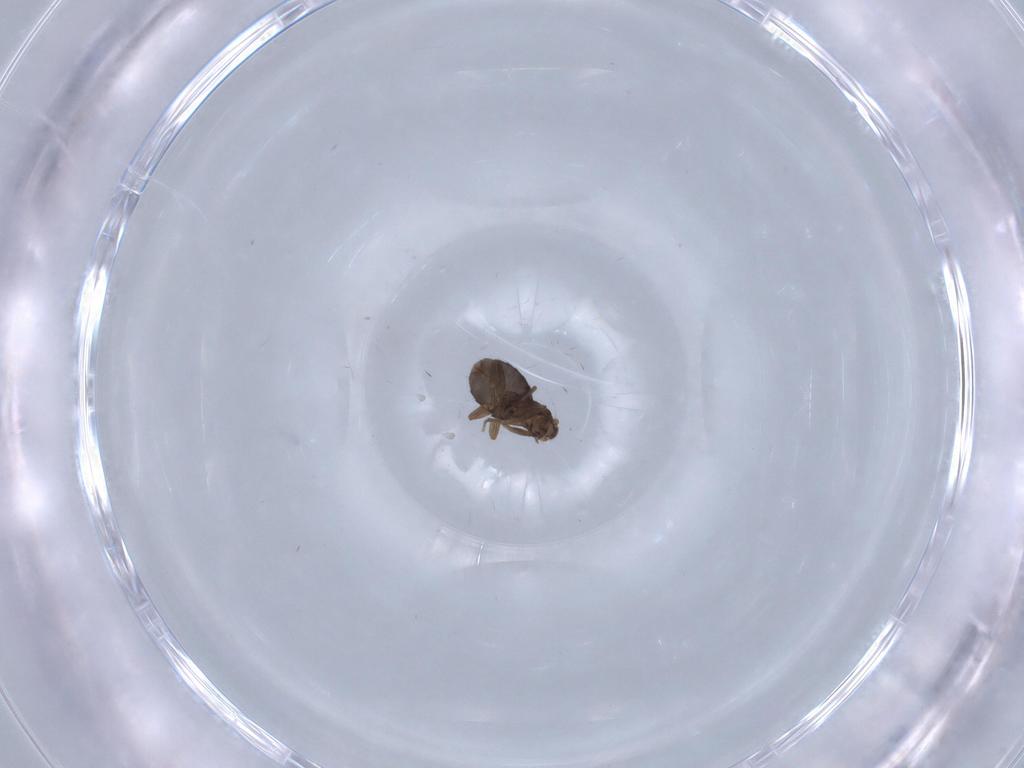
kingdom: Animalia
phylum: Arthropoda
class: Insecta
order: Diptera
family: Phoridae
